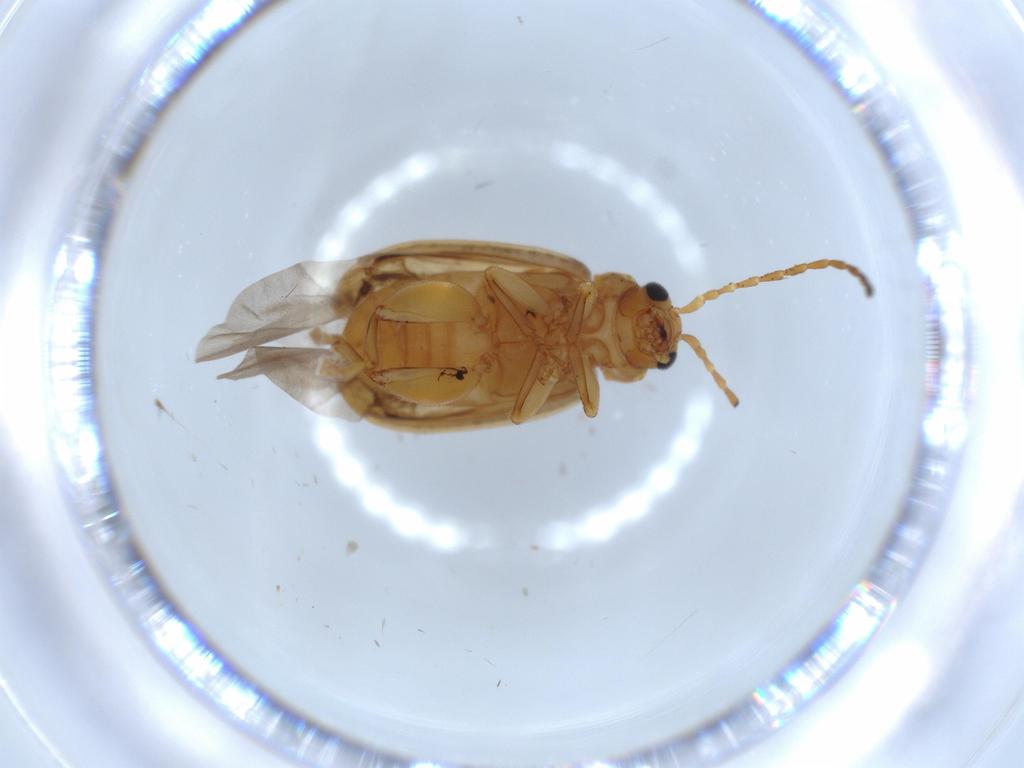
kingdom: Animalia
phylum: Arthropoda
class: Insecta
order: Coleoptera
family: Chrysomelidae
